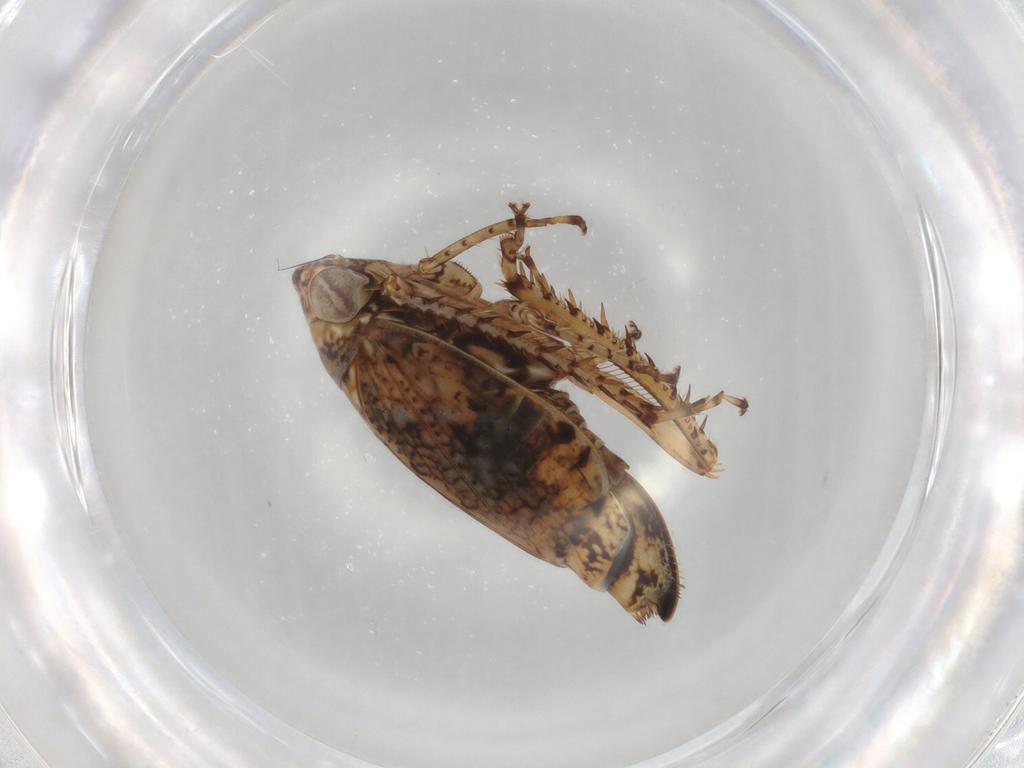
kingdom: Animalia
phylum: Arthropoda
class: Insecta
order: Hemiptera
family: Cicadellidae
